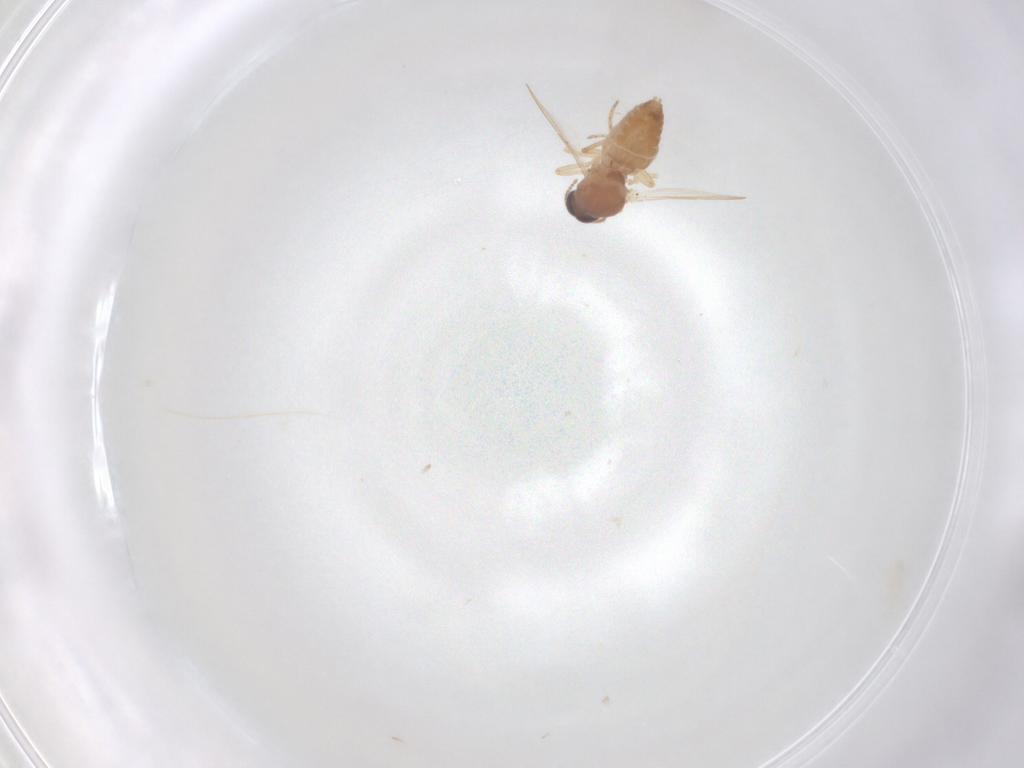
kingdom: Animalia
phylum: Arthropoda
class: Insecta
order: Diptera
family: Ceratopogonidae
